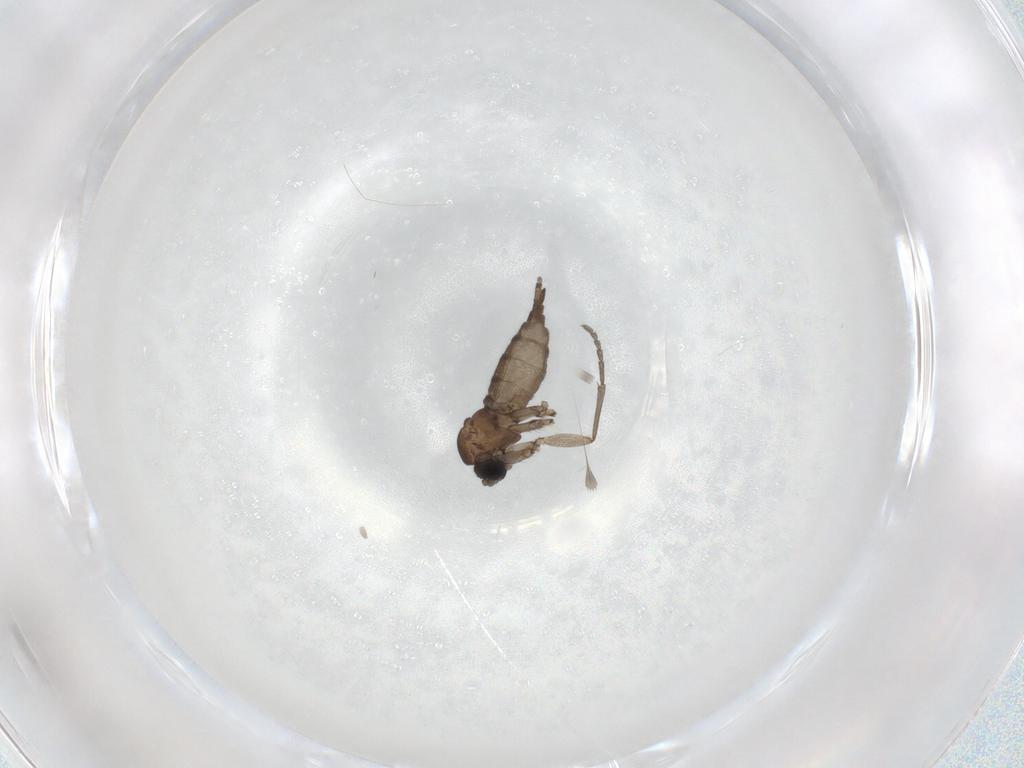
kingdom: Animalia
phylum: Arthropoda
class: Insecta
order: Diptera
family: Sciaridae
